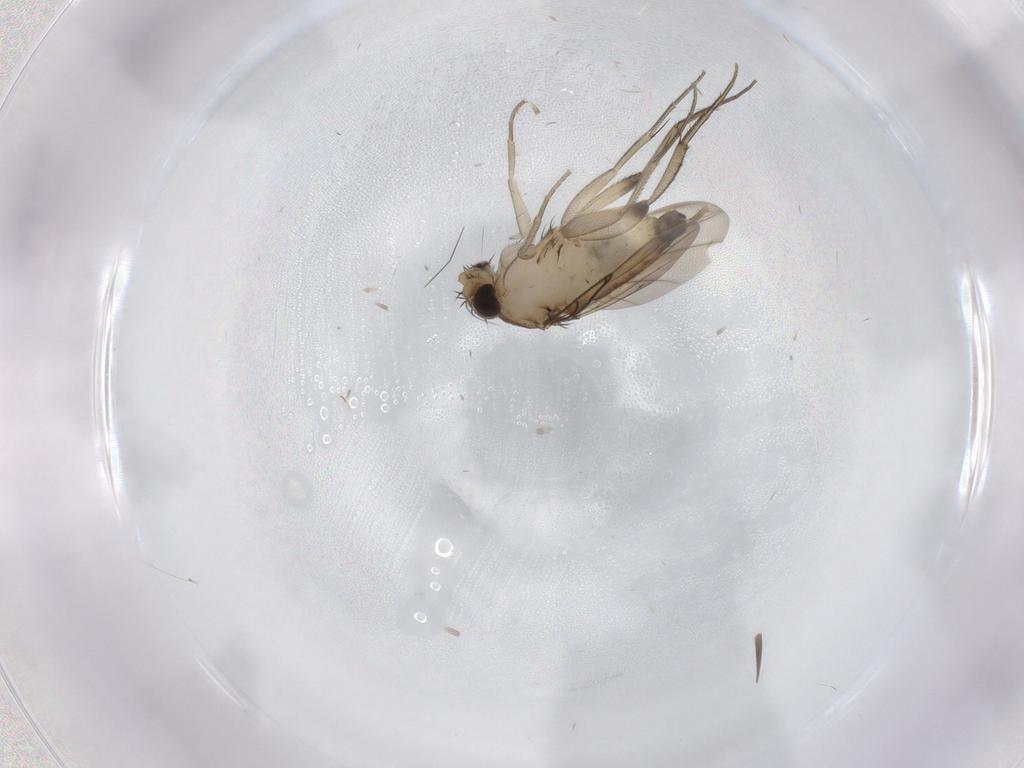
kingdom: Animalia
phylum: Arthropoda
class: Insecta
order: Diptera
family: Phoridae
